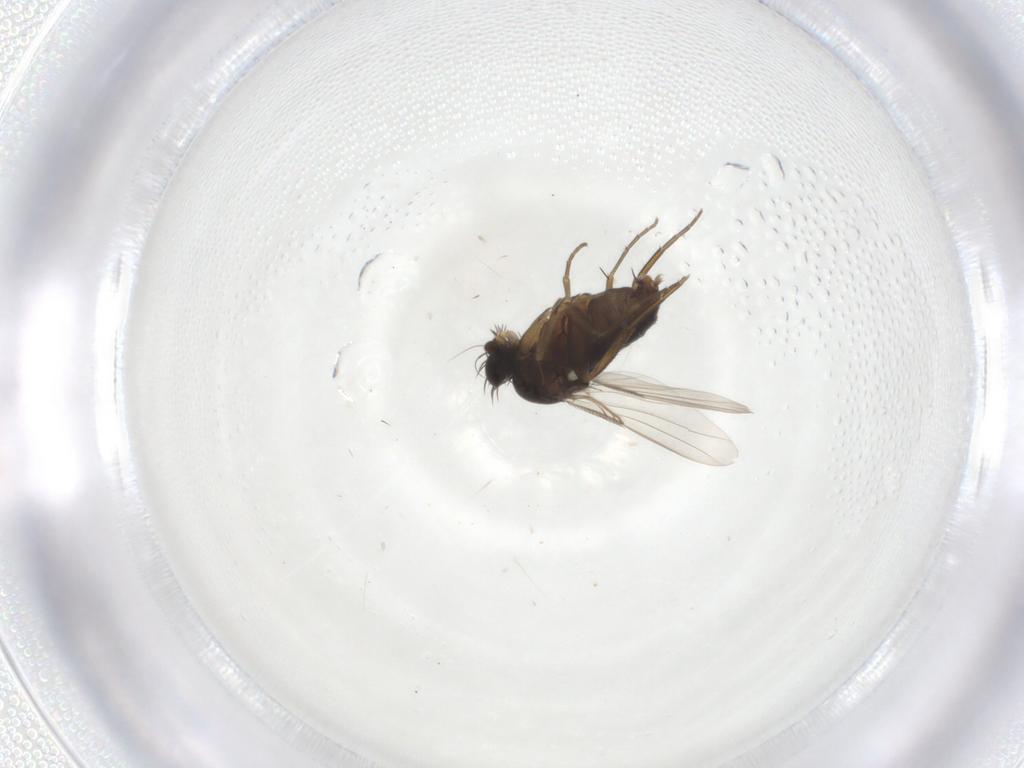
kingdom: Animalia
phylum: Arthropoda
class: Insecta
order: Diptera
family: Phoridae
